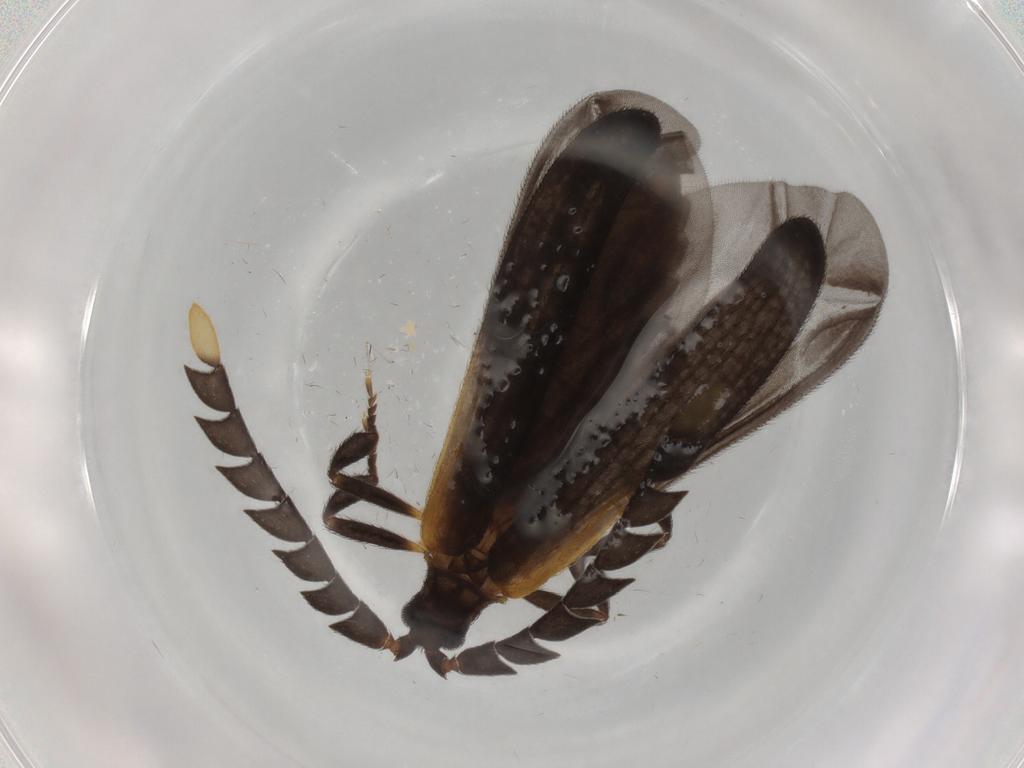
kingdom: Animalia
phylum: Arthropoda
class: Insecta
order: Coleoptera
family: Lycidae
